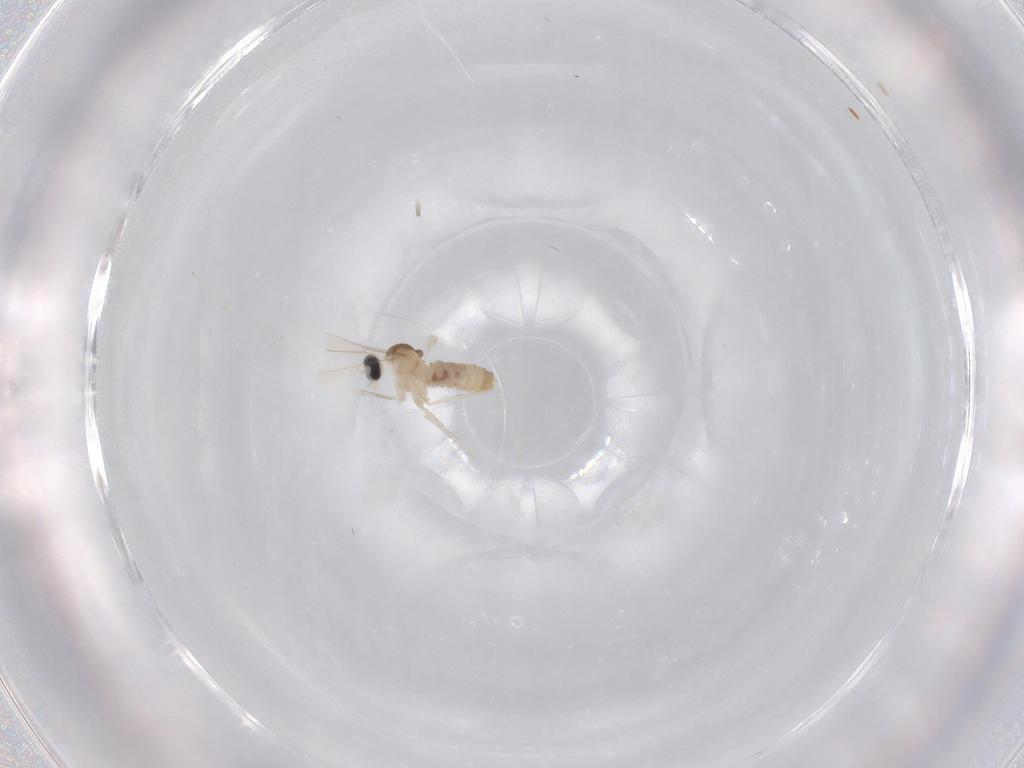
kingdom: Animalia
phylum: Arthropoda
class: Insecta
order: Diptera
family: Cecidomyiidae
